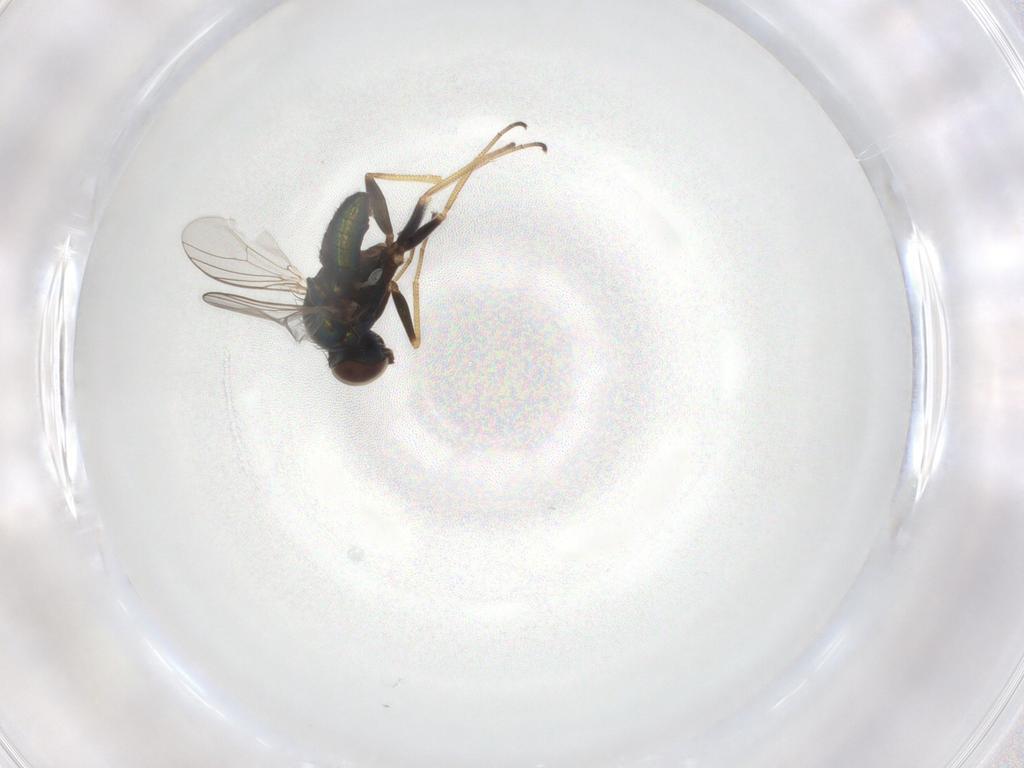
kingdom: Animalia
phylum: Arthropoda
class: Insecta
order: Diptera
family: Dolichopodidae
